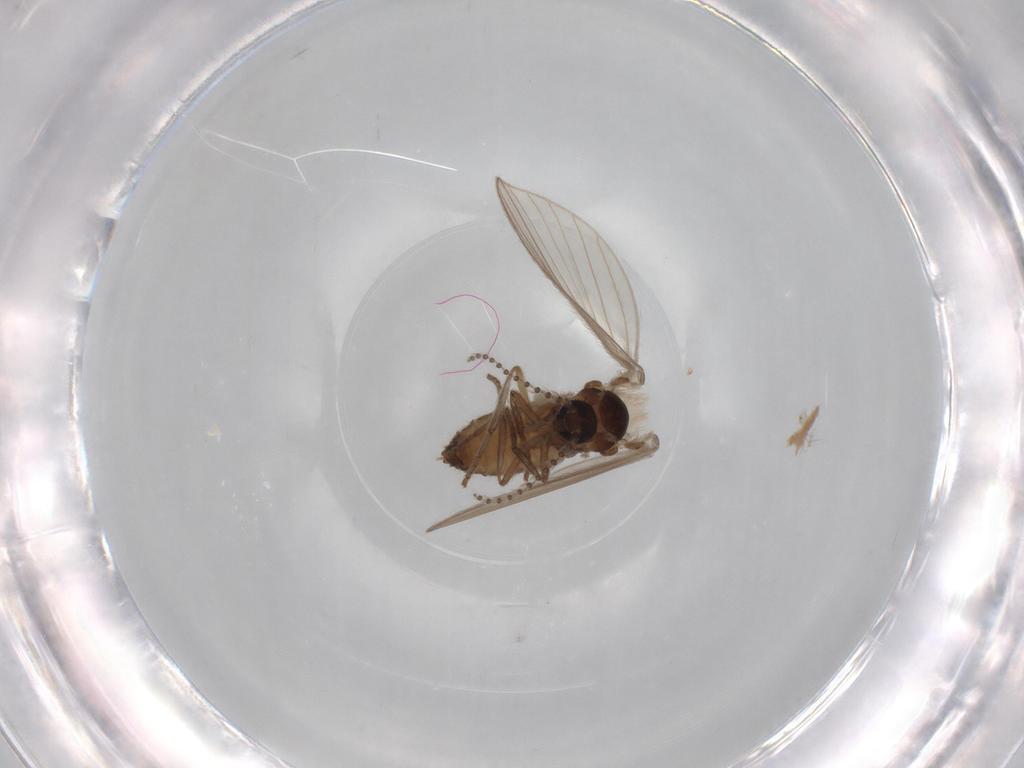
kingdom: Animalia
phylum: Arthropoda
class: Insecta
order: Diptera
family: Psychodidae
